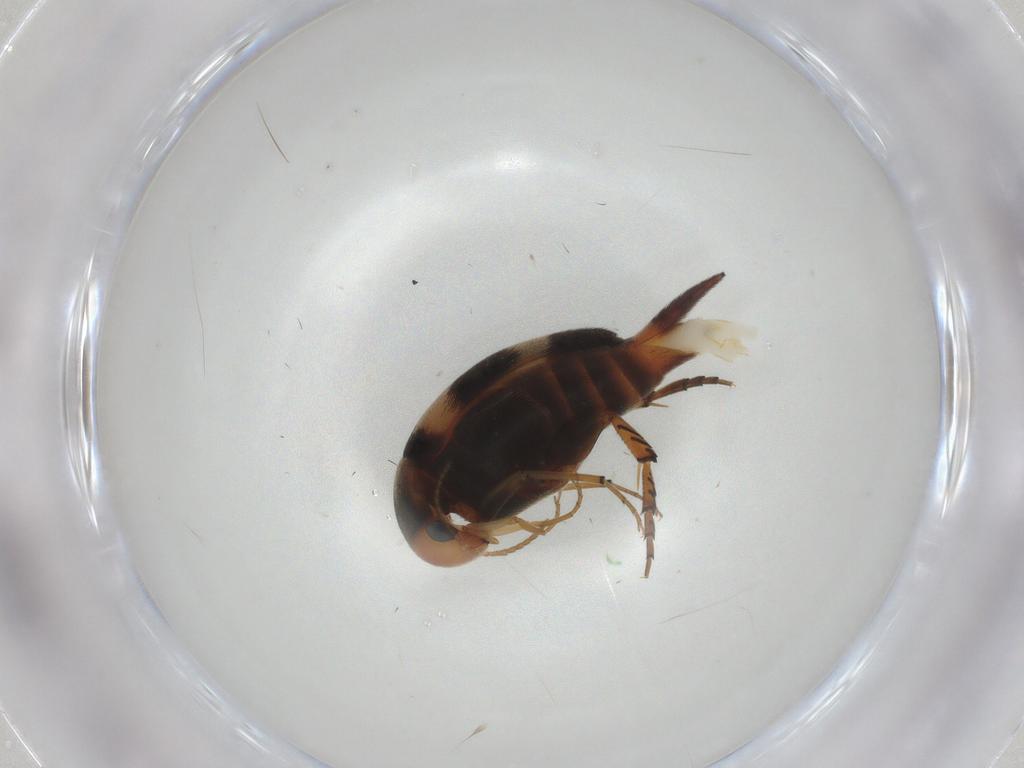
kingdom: Animalia
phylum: Arthropoda
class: Insecta
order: Coleoptera
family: Mordellidae
